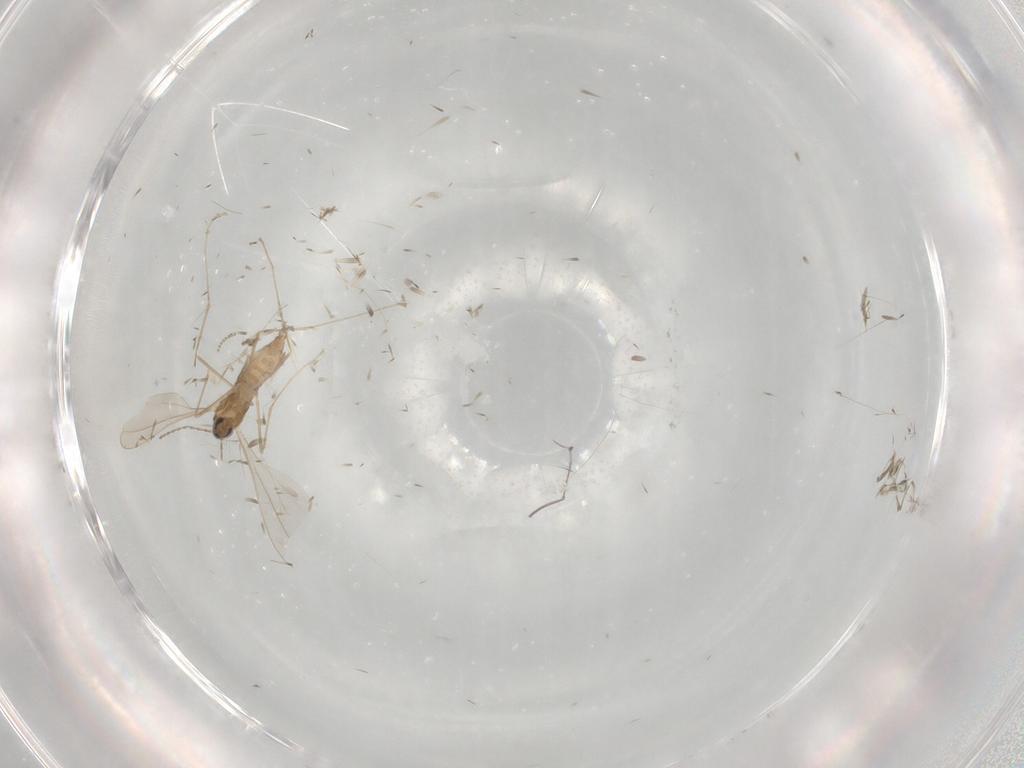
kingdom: Animalia
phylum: Arthropoda
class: Insecta
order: Diptera
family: Cecidomyiidae
